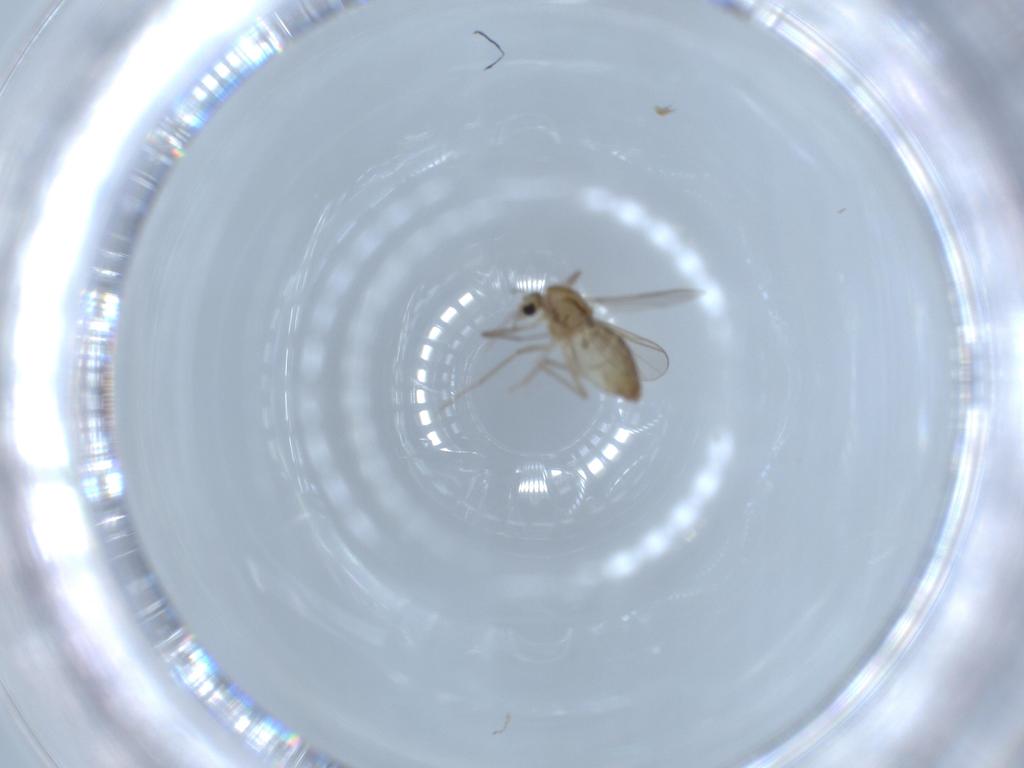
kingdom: Animalia
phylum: Arthropoda
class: Insecta
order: Diptera
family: Chironomidae
